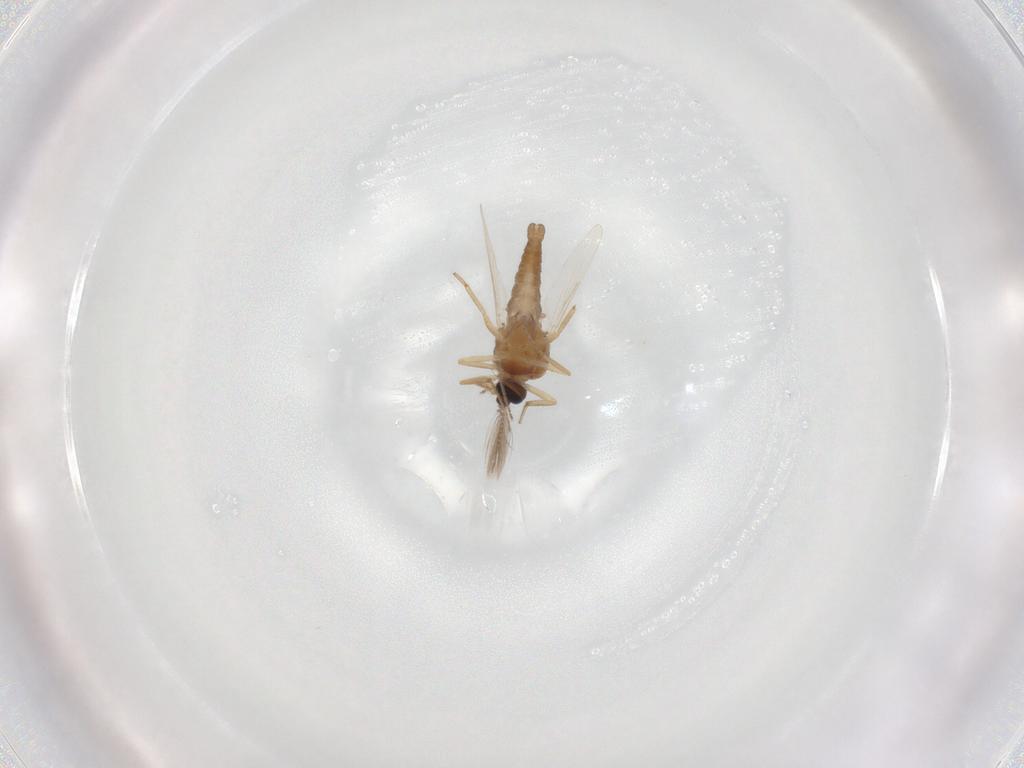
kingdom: Animalia
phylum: Arthropoda
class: Insecta
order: Diptera
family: Ceratopogonidae
